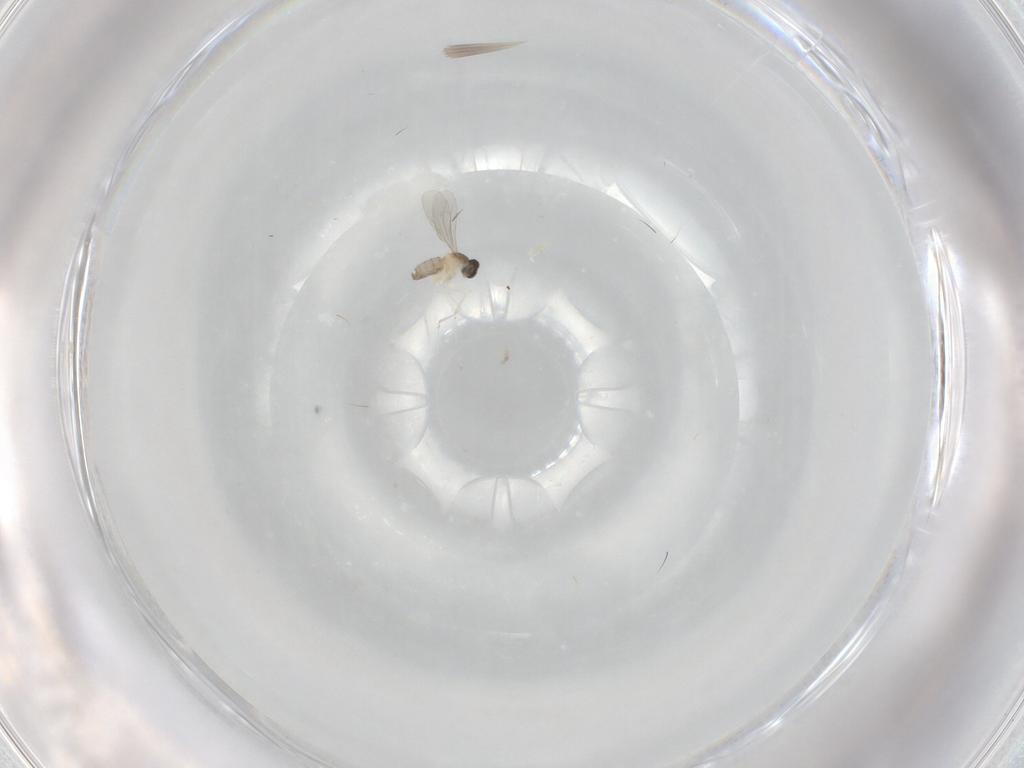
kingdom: Animalia
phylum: Arthropoda
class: Insecta
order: Diptera
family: Cecidomyiidae
